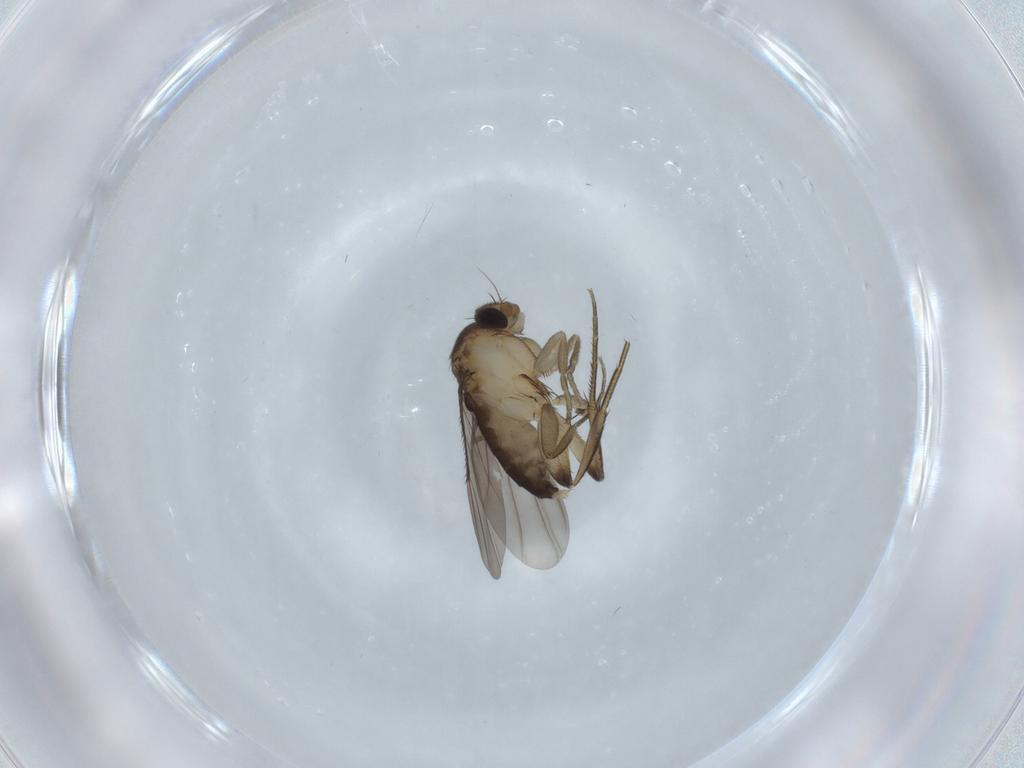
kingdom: Animalia
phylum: Arthropoda
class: Insecta
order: Diptera
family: Phoridae
